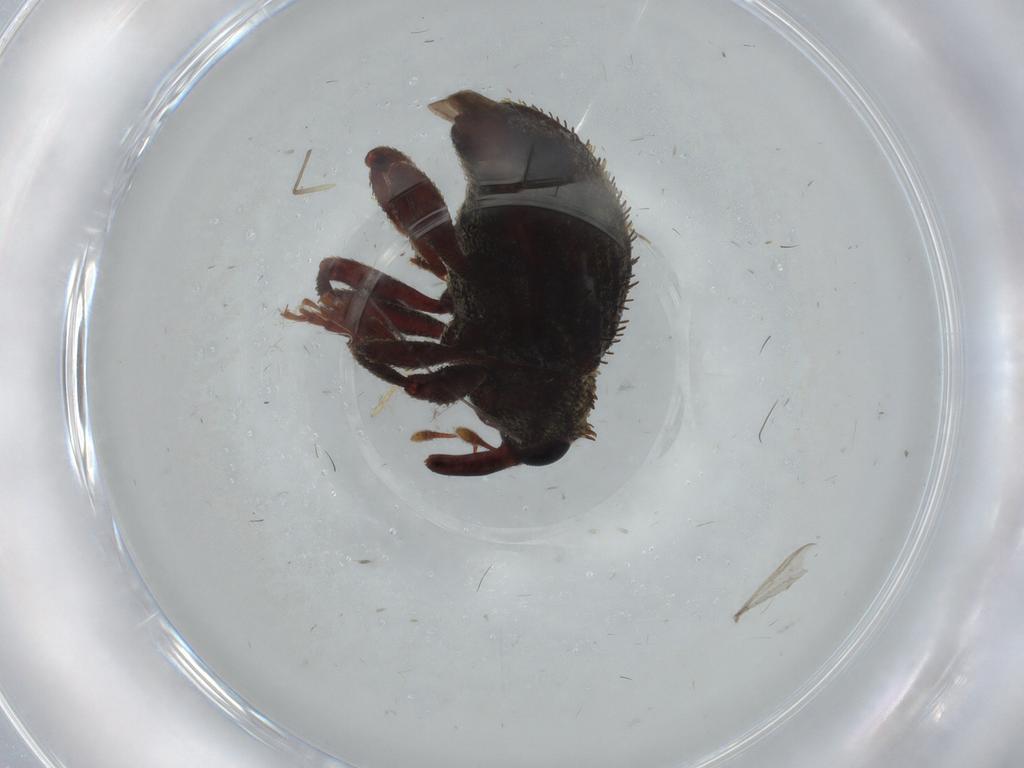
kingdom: Animalia
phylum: Arthropoda
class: Insecta
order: Coleoptera
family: Curculionidae
